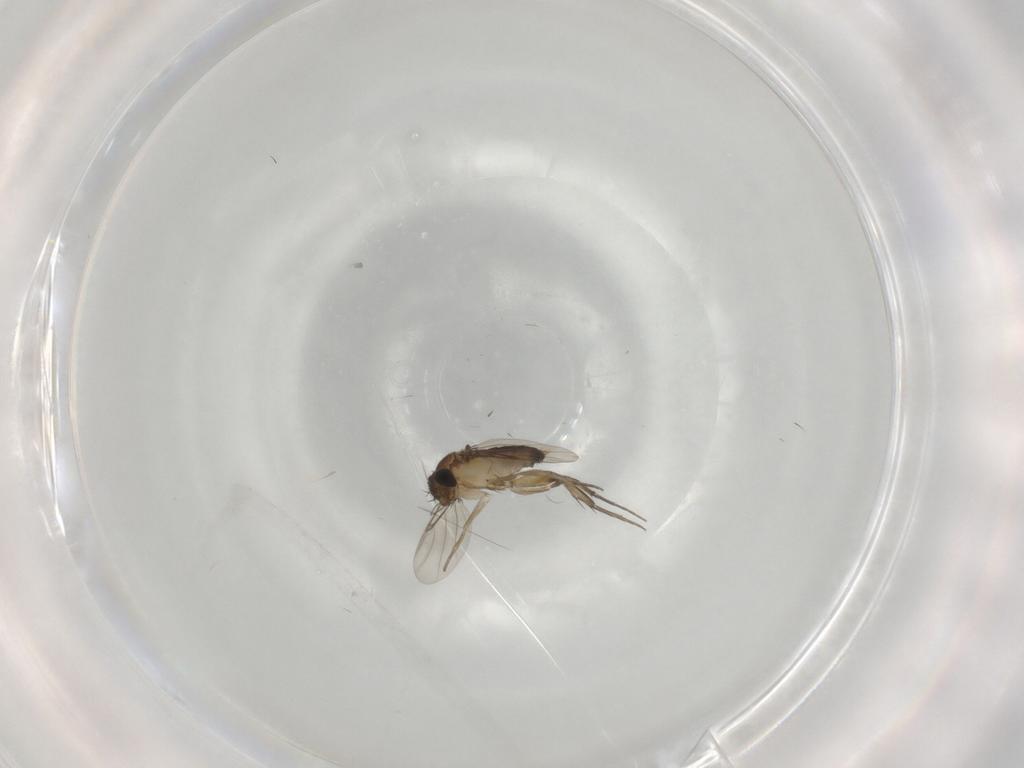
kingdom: Animalia
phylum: Arthropoda
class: Insecta
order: Diptera
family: Phoridae
